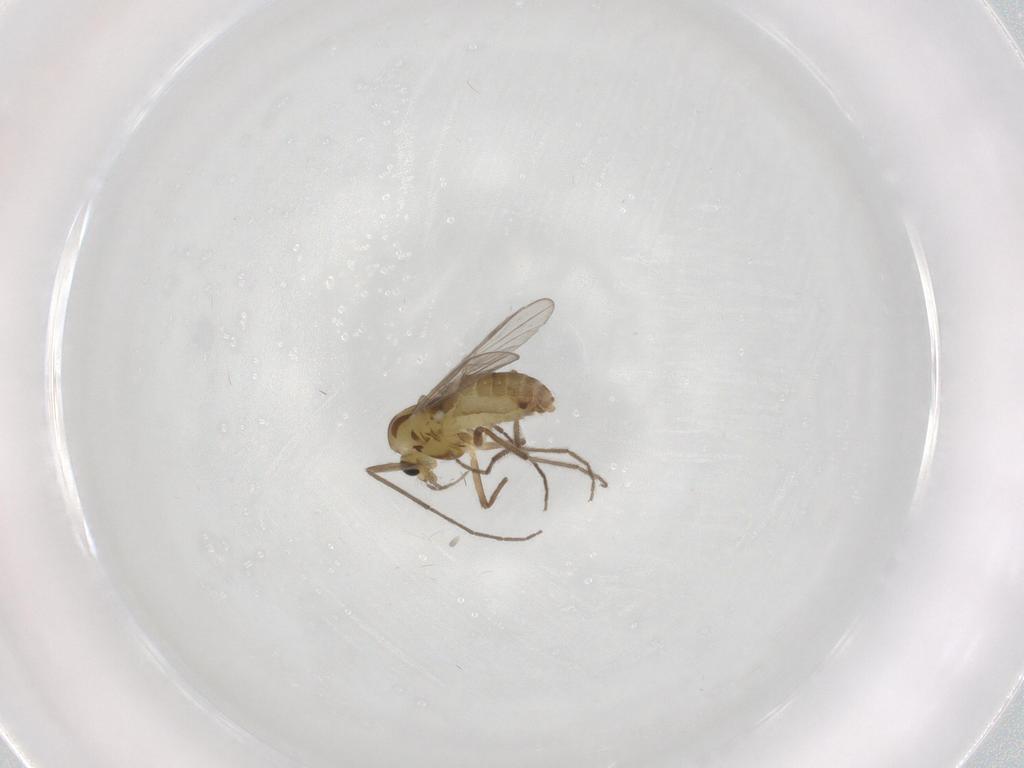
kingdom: Animalia
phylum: Arthropoda
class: Insecta
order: Diptera
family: Chironomidae
